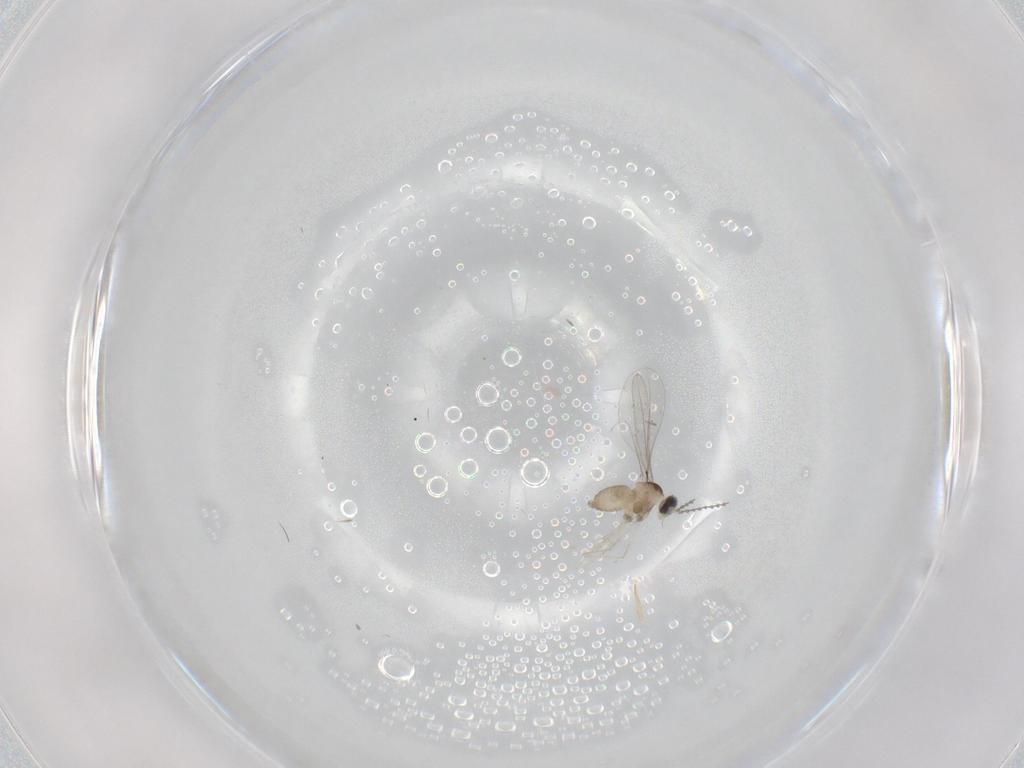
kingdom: Animalia
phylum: Arthropoda
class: Insecta
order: Diptera
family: Cecidomyiidae
